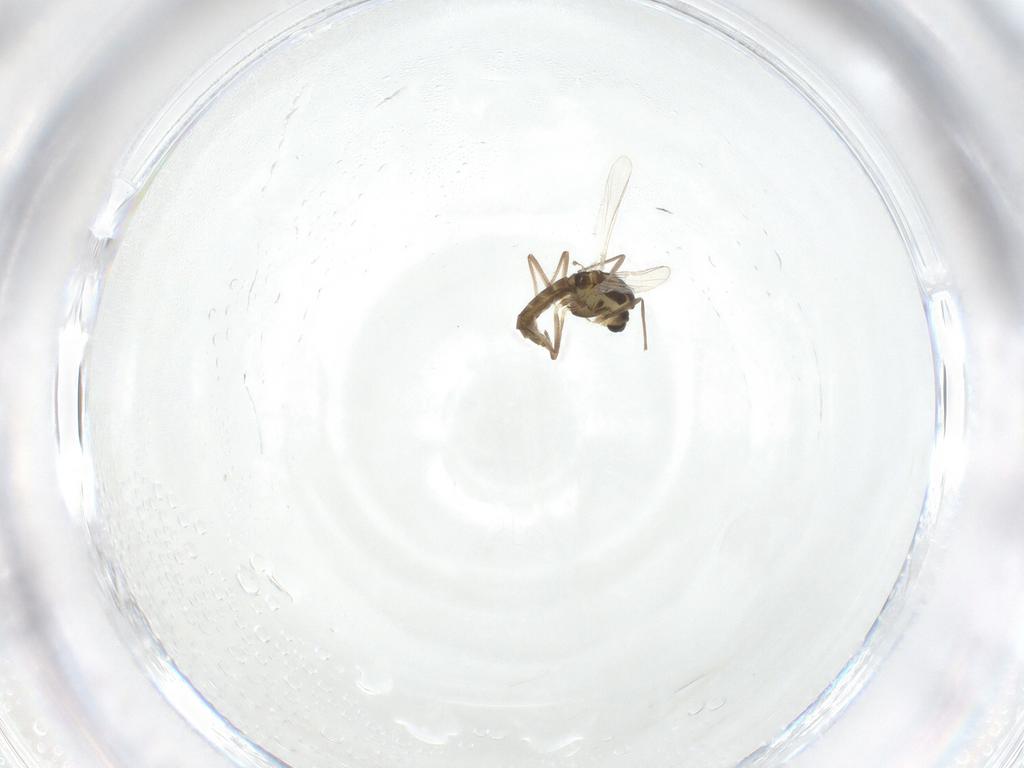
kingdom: Animalia
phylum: Arthropoda
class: Insecta
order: Diptera
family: Chironomidae
